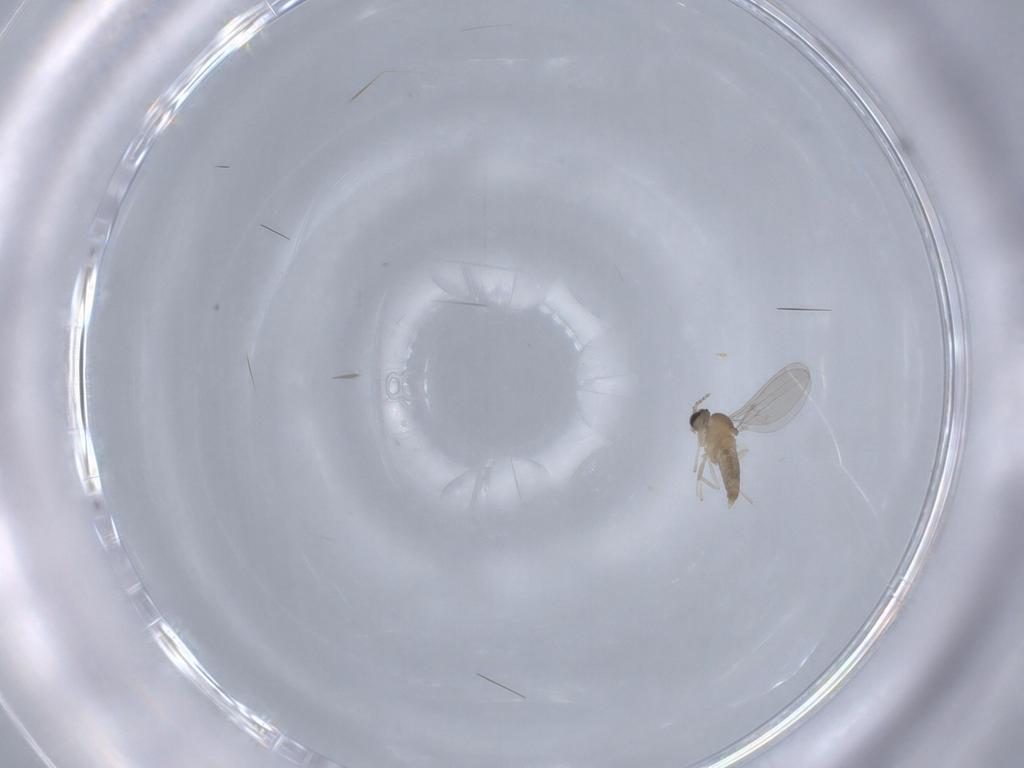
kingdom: Animalia
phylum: Arthropoda
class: Insecta
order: Diptera
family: Cecidomyiidae
